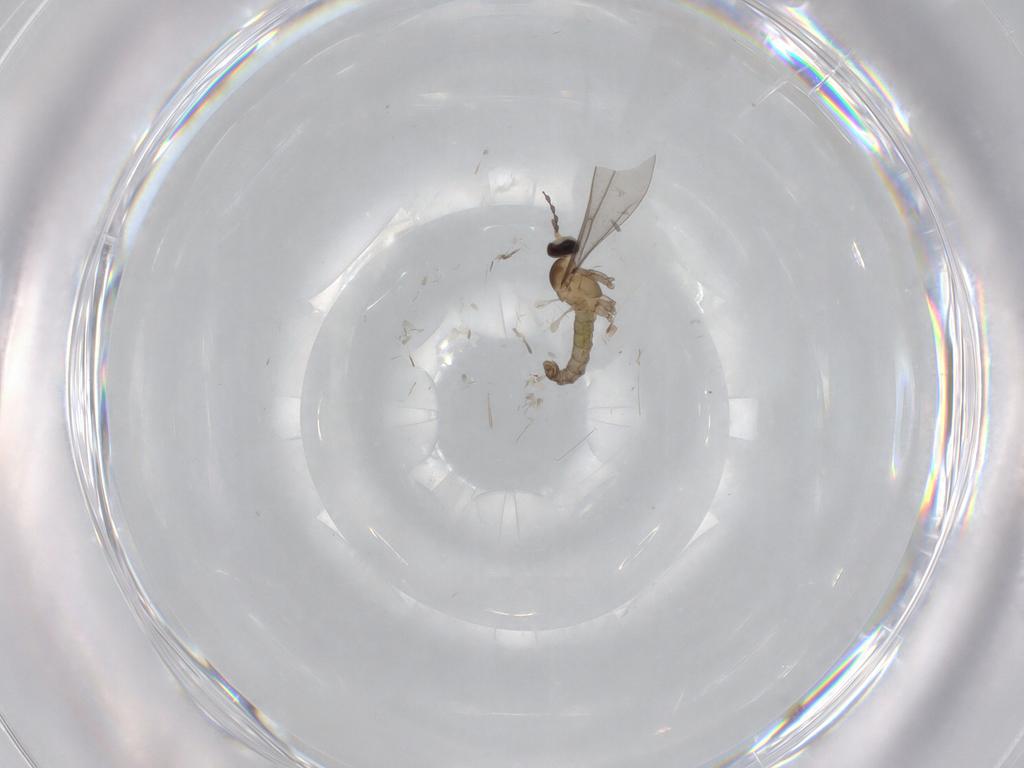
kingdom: Animalia
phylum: Arthropoda
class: Insecta
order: Diptera
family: Cecidomyiidae
